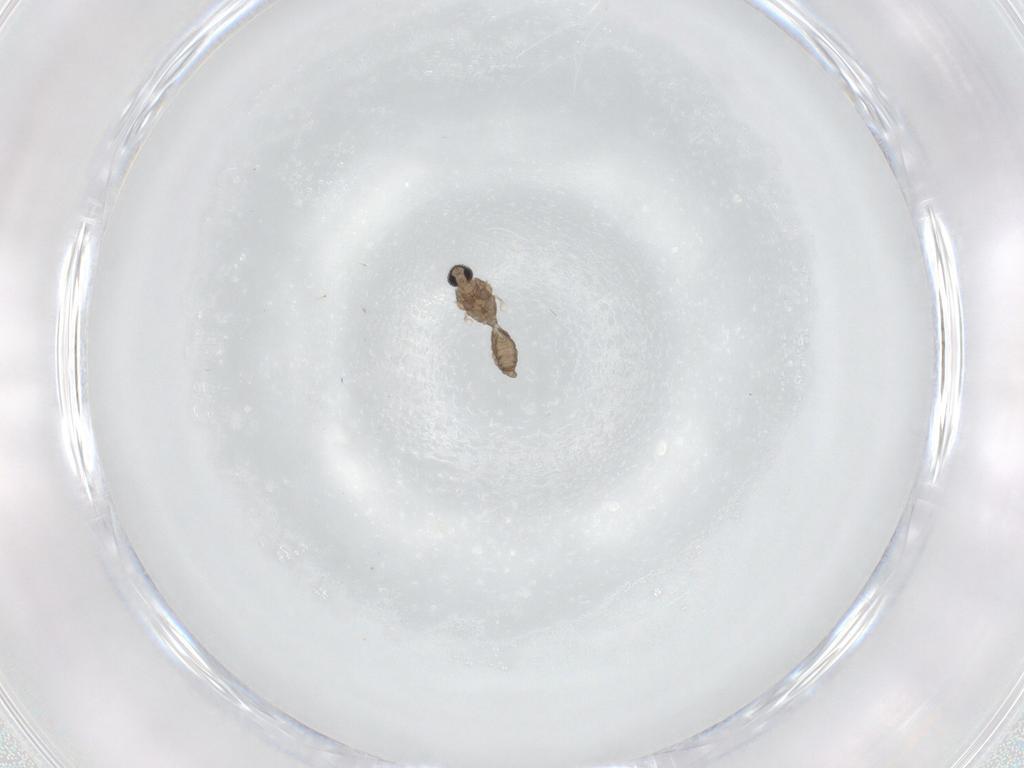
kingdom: Animalia
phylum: Arthropoda
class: Insecta
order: Diptera
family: Psychodidae
